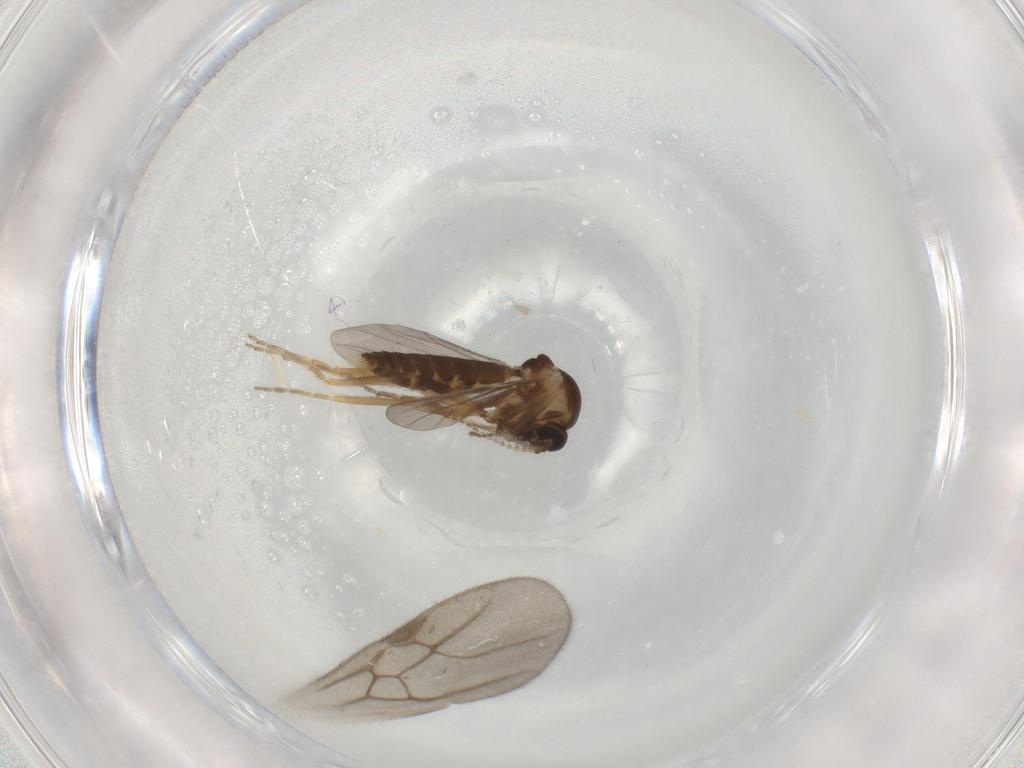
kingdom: Animalia
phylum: Arthropoda
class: Insecta
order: Diptera
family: Ceratopogonidae
